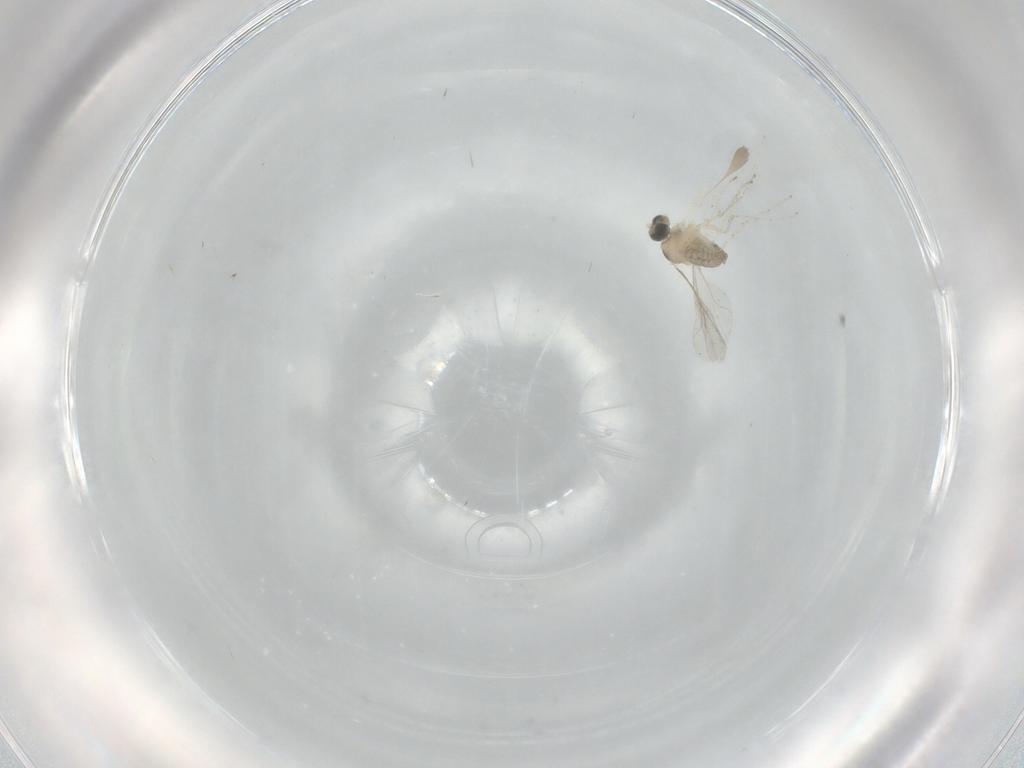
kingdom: Animalia
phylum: Arthropoda
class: Insecta
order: Diptera
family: Cecidomyiidae
